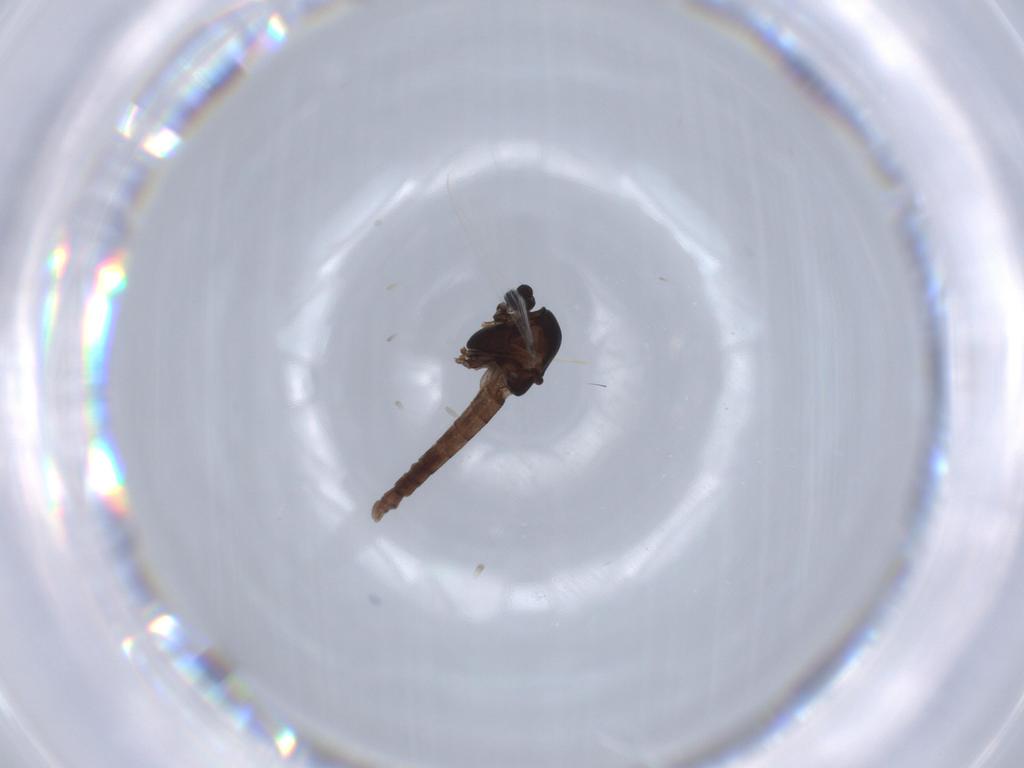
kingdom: Animalia
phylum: Arthropoda
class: Insecta
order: Diptera
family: Chironomidae
